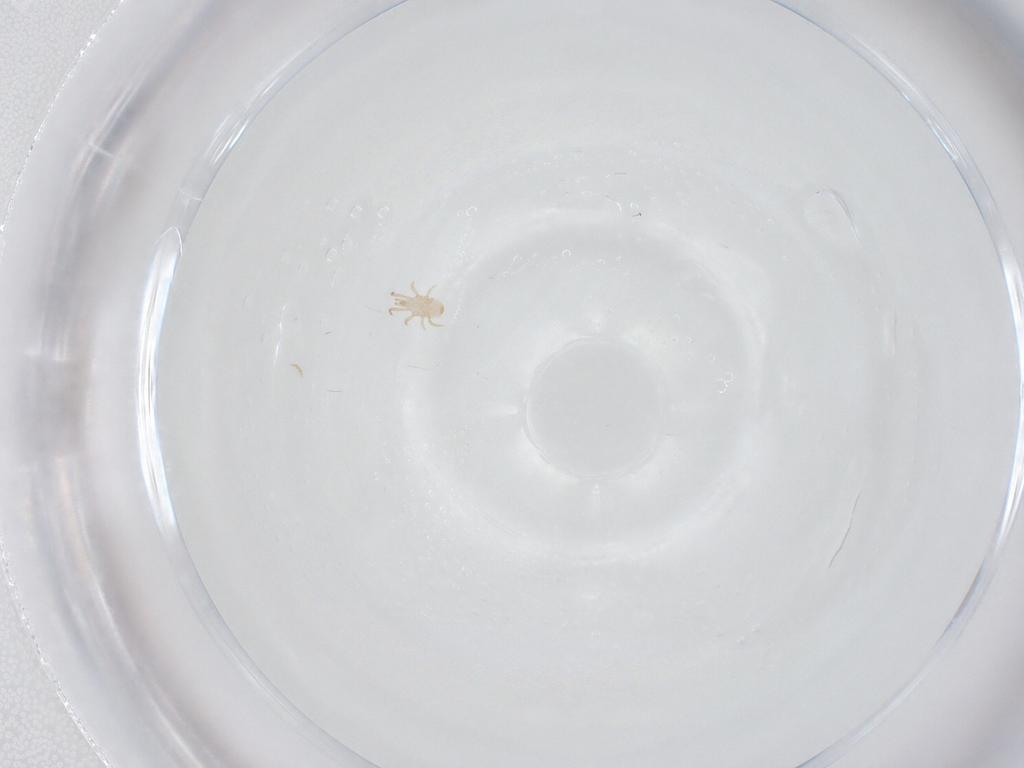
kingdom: Animalia
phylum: Arthropoda
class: Arachnida
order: Mesostigmata
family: Ascidae
